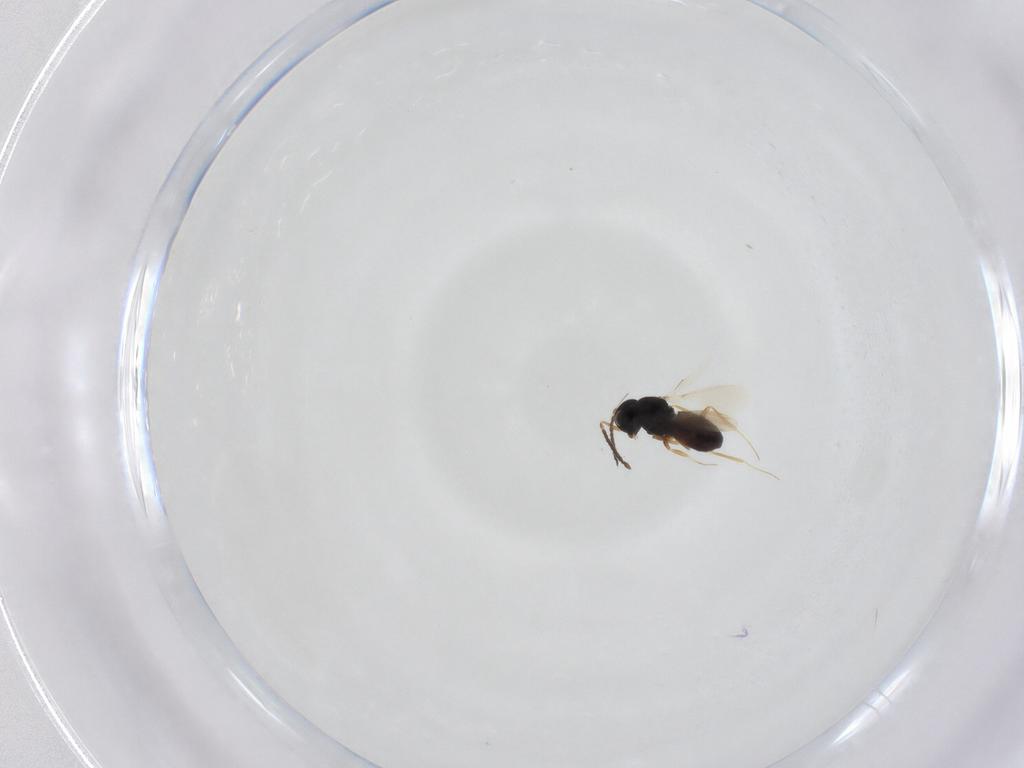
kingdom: Animalia
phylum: Arthropoda
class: Insecta
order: Hymenoptera
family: Scelionidae
